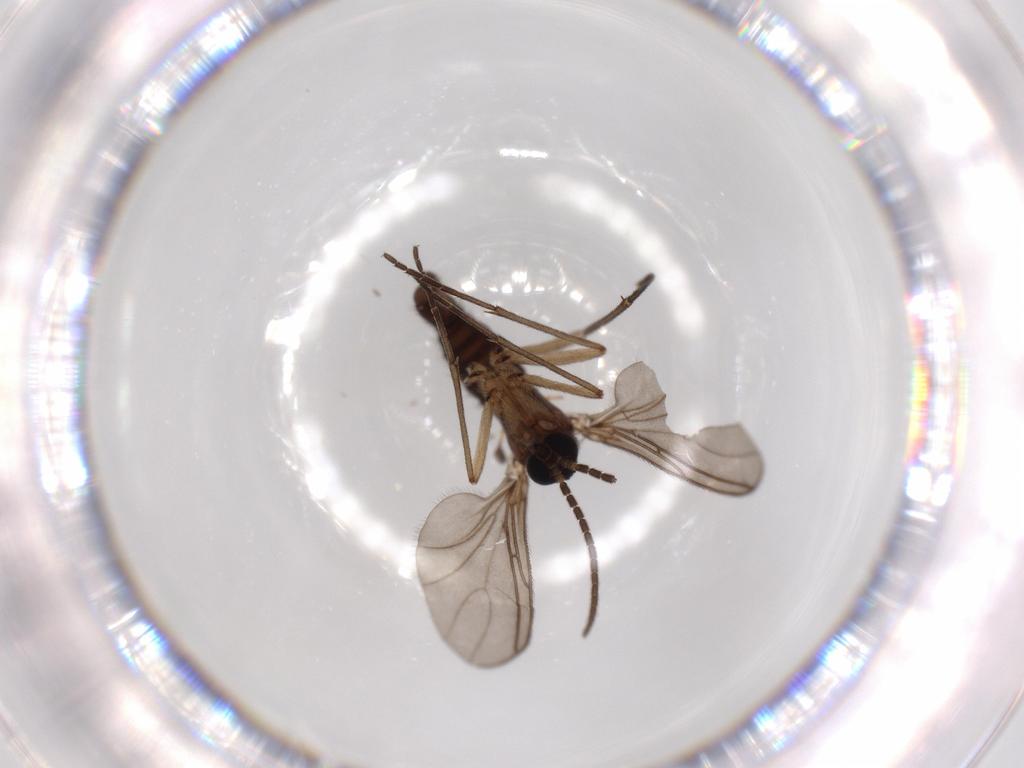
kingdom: Animalia
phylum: Arthropoda
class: Insecta
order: Diptera
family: Sciaridae
